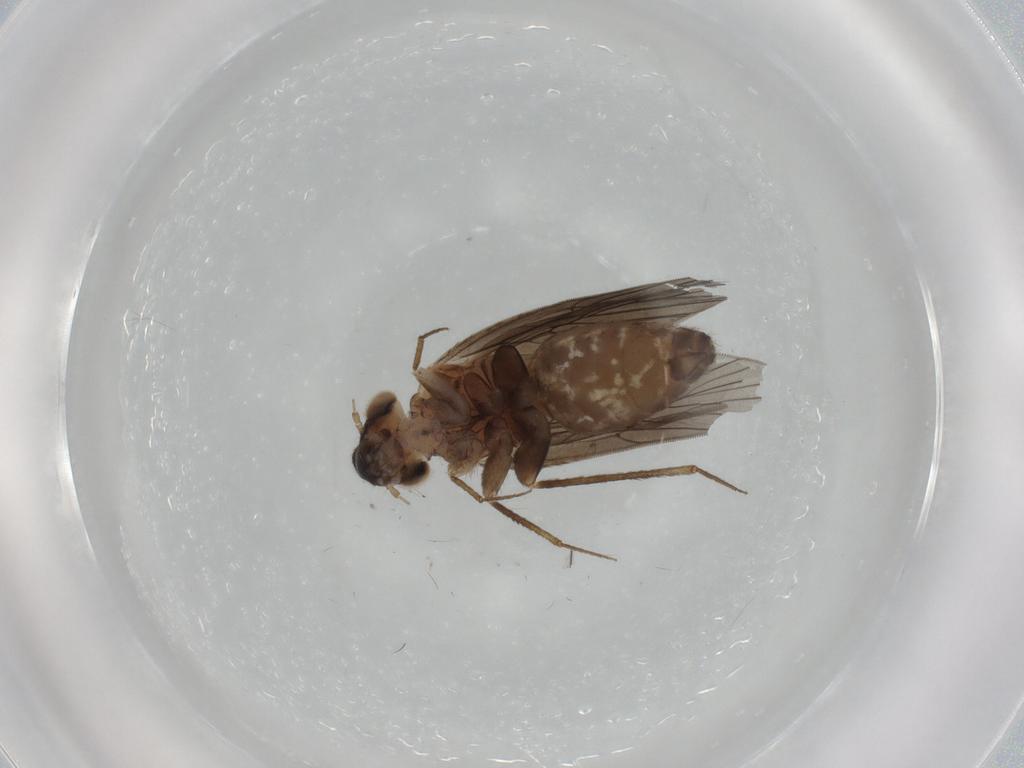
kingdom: Animalia
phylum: Arthropoda
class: Insecta
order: Psocodea
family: Lepidopsocidae
